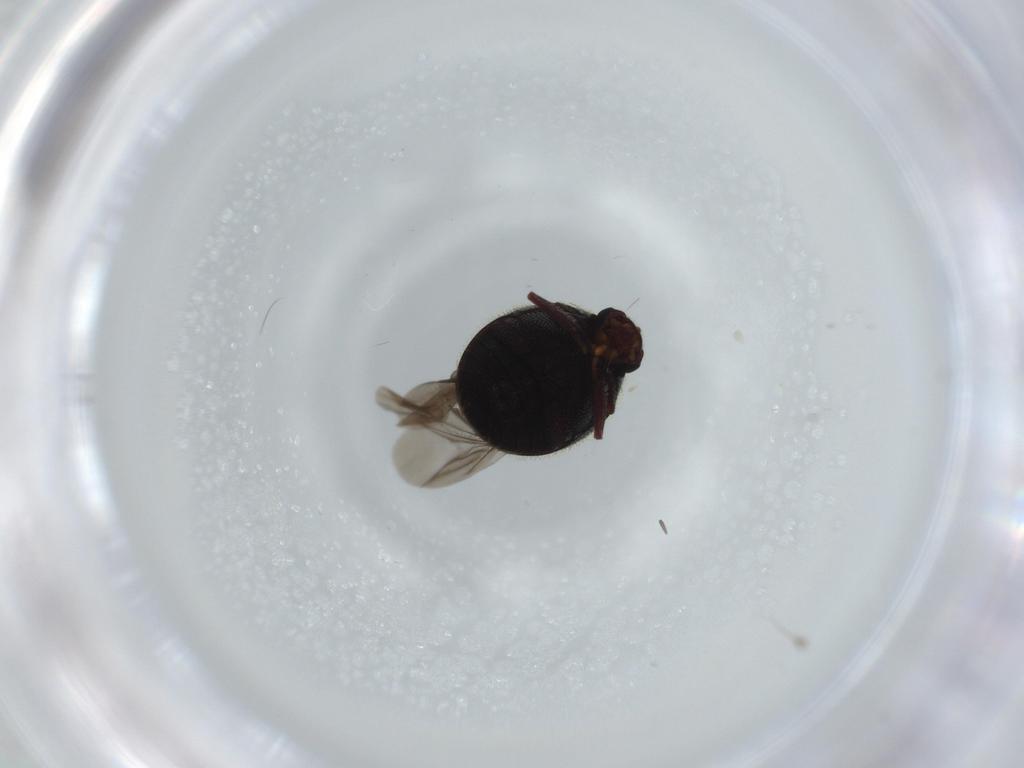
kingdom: Animalia
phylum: Arthropoda
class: Insecta
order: Coleoptera
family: Ptinidae
